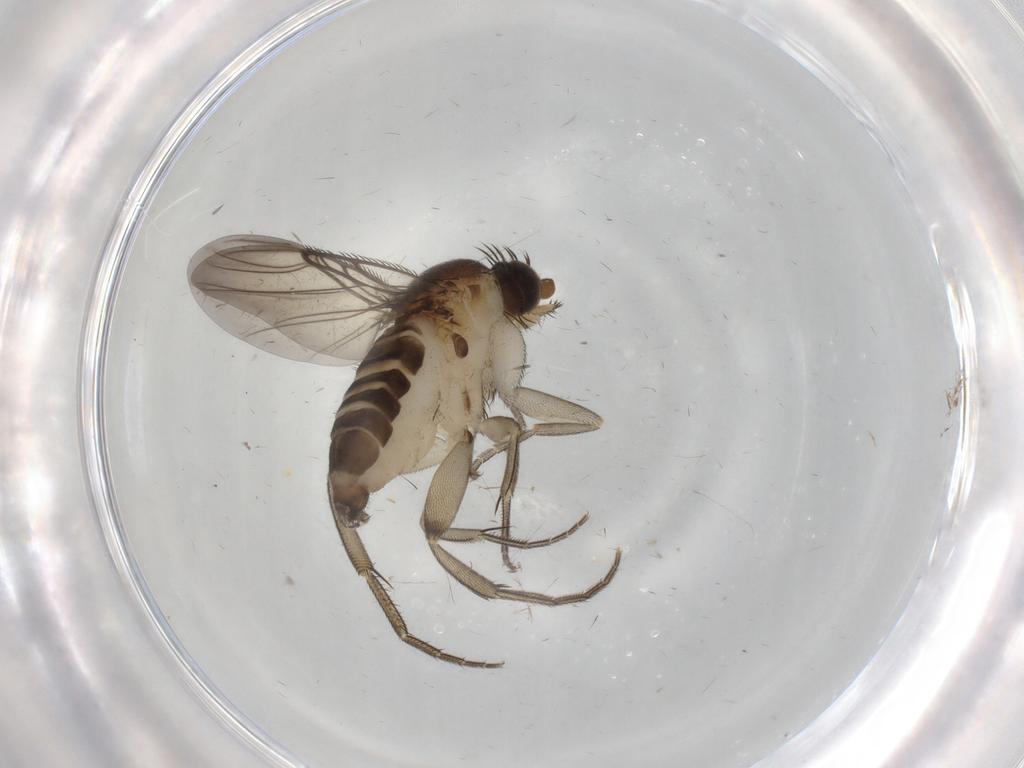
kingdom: Animalia
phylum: Arthropoda
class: Insecta
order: Diptera
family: Phoridae
